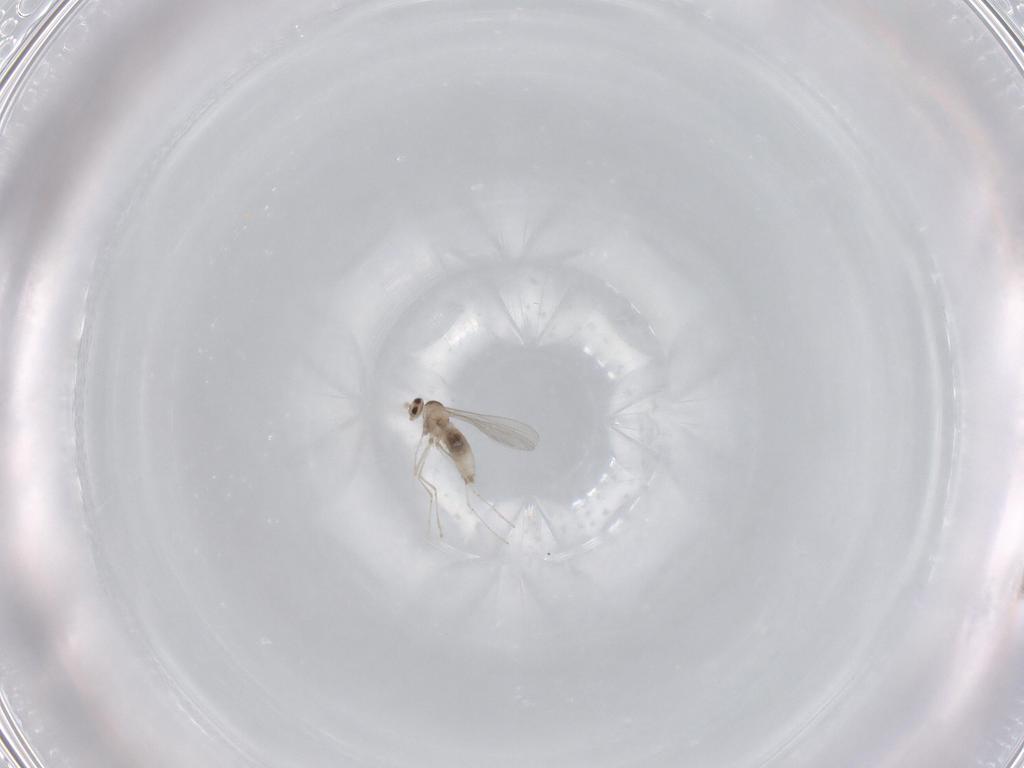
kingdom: Animalia
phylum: Arthropoda
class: Insecta
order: Diptera
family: Cecidomyiidae
